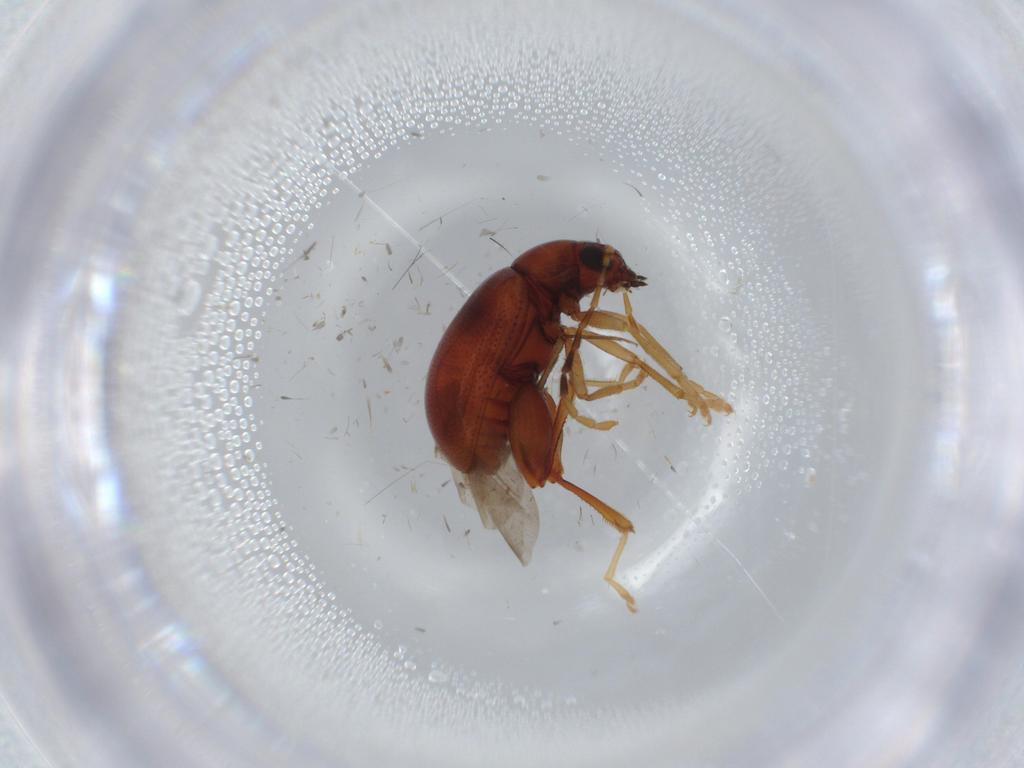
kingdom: Animalia
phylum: Arthropoda
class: Insecta
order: Coleoptera
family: Chrysomelidae
